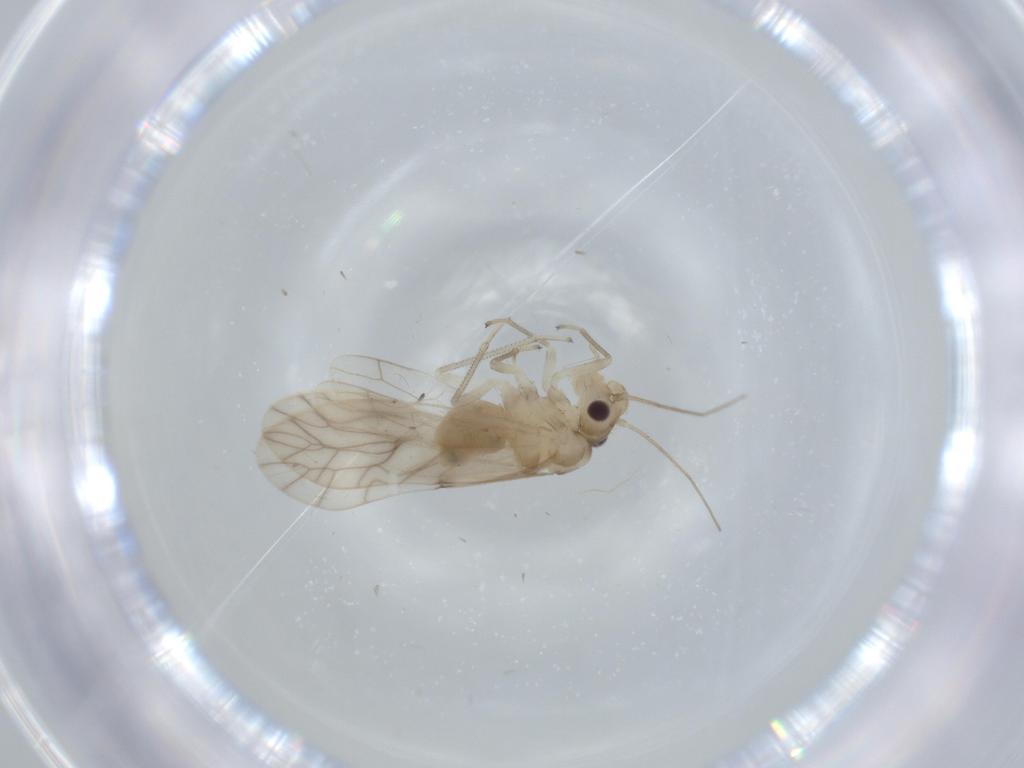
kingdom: Animalia
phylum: Arthropoda
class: Insecta
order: Psocodea
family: Caeciliusidae
